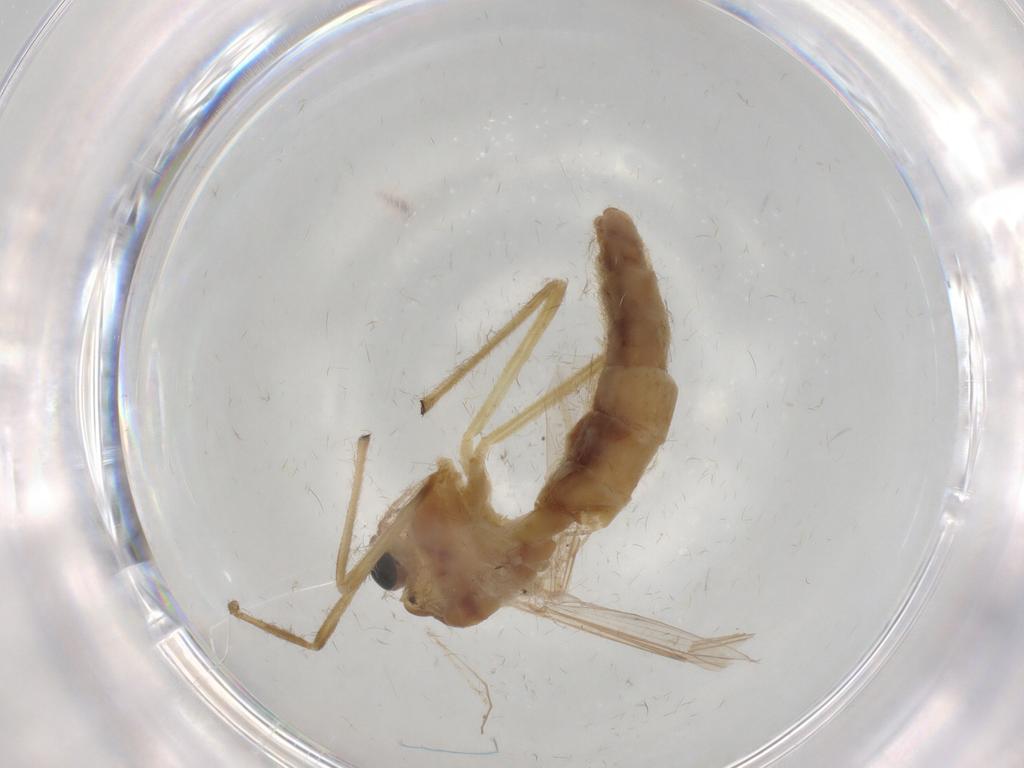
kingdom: Animalia
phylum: Arthropoda
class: Insecta
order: Diptera
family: Chironomidae
